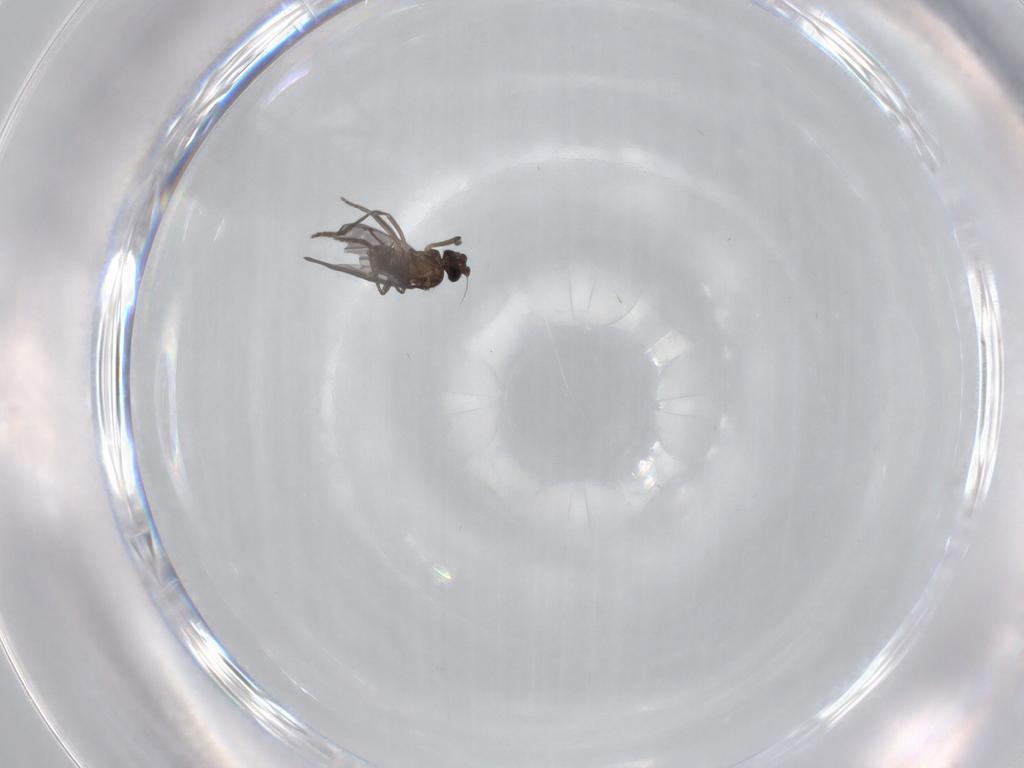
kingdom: Animalia
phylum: Arthropoda
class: Insecta
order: Diptera
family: Phoridae
